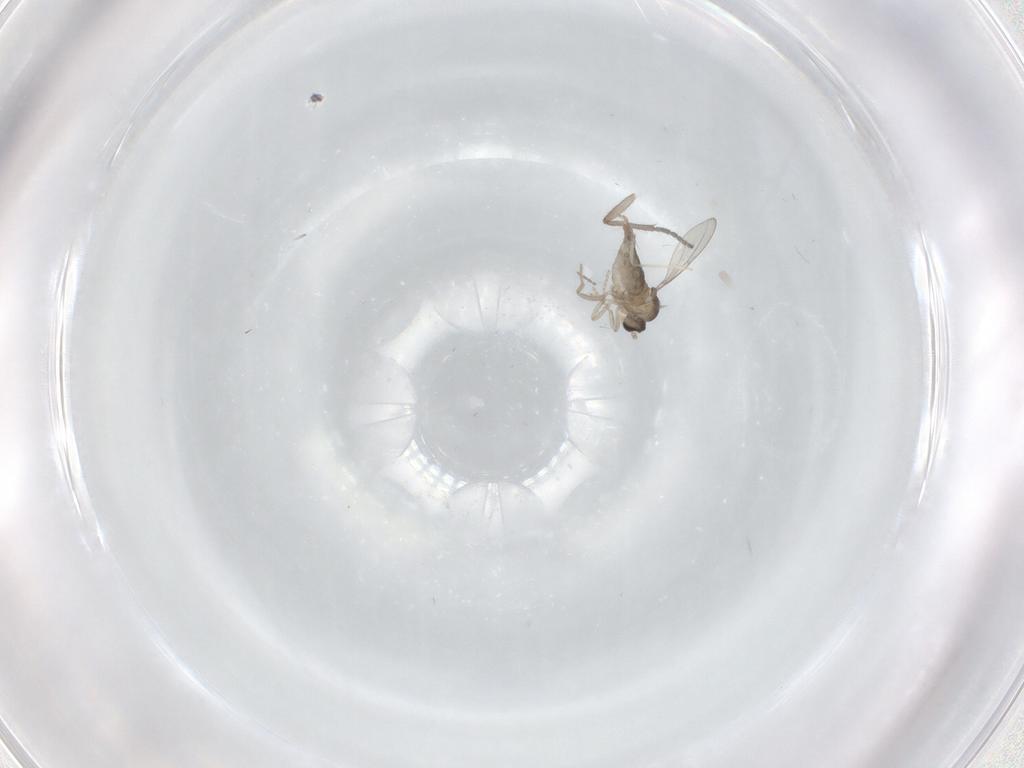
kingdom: Animalia
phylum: Arthropoda
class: Insecta
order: Diptera
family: Cecidomyiidae
